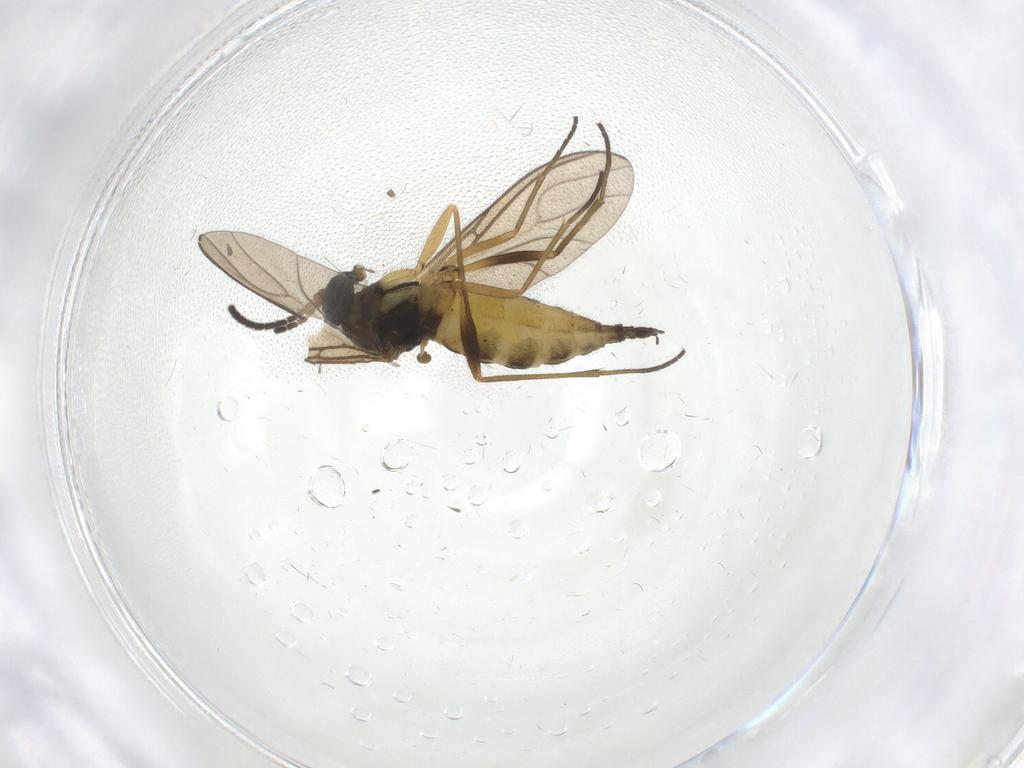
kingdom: Animalia
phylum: Arthropoda
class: Insecta
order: Diptera
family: Sciaridae
